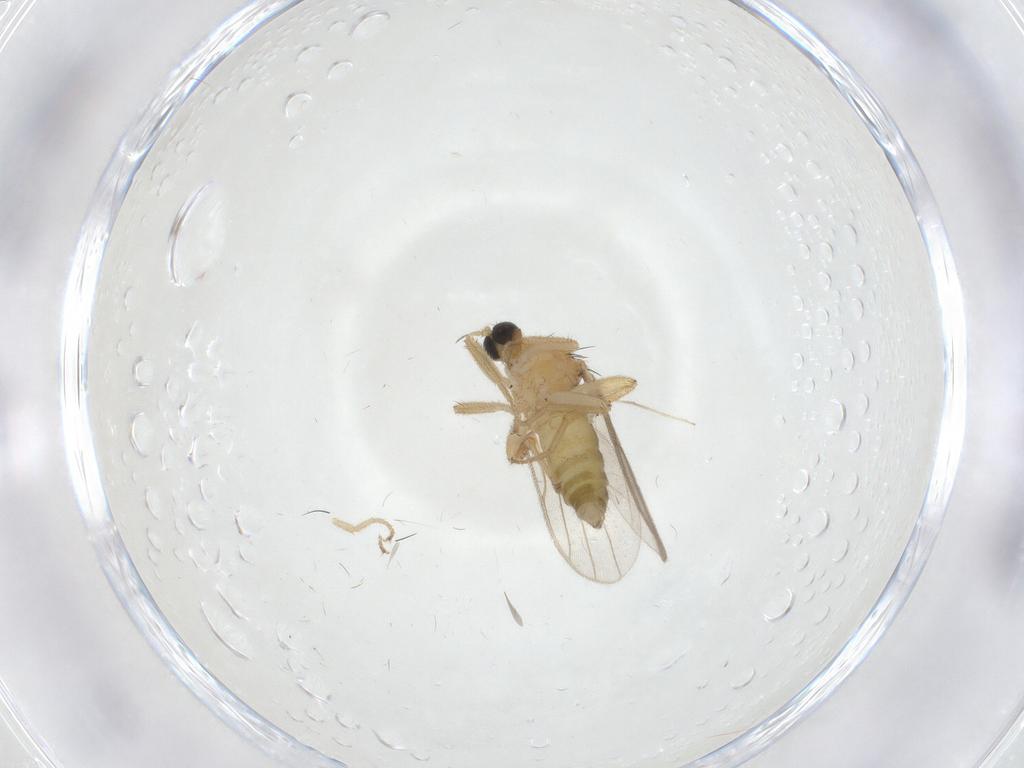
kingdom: Animalia
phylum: Arthropoda
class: Insecta
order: Diptera
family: Hybotidae
